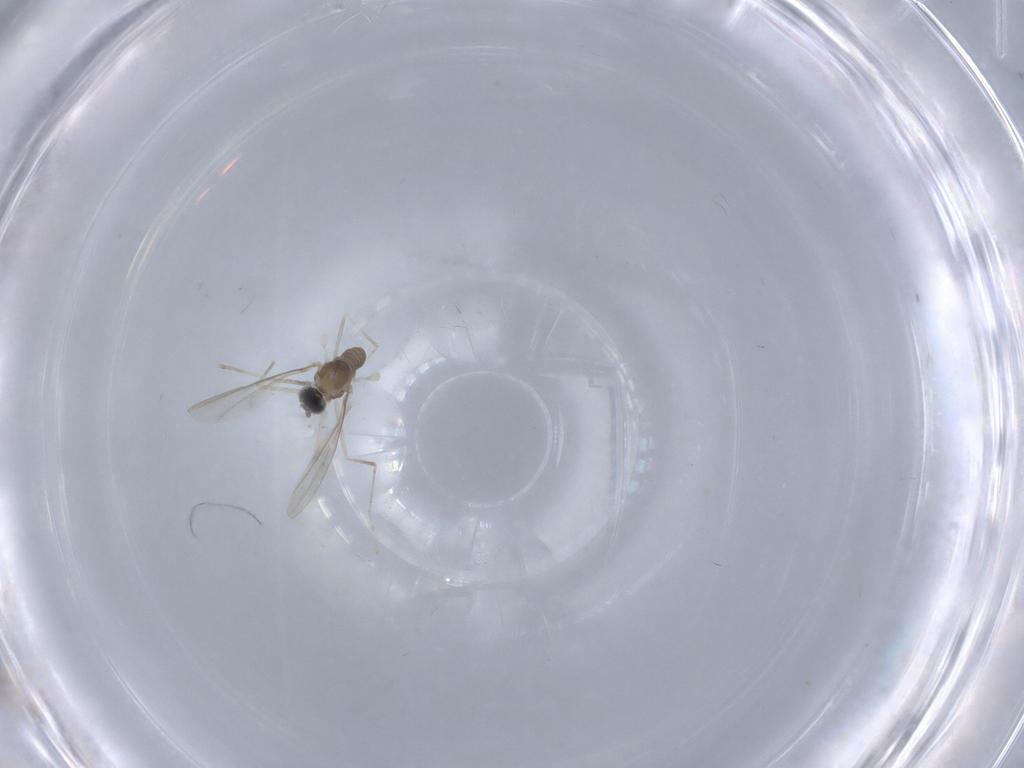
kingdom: Animalia
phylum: Arthropoda
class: Insecta
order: Diptera
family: Cecidomyiidae
